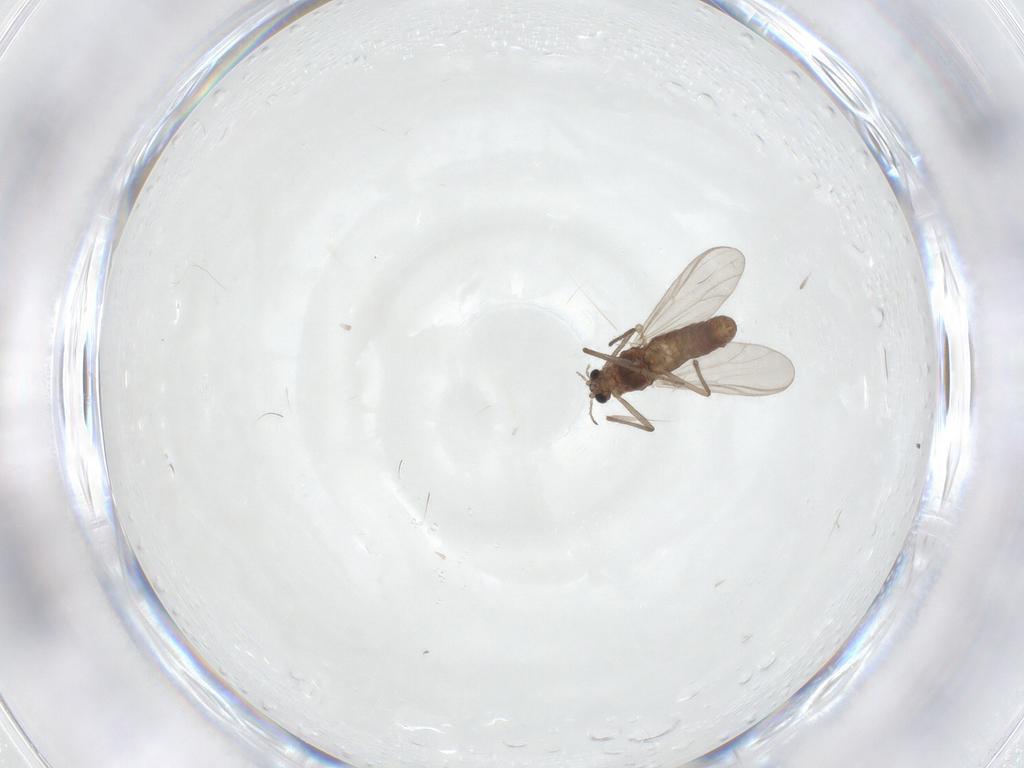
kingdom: Animalia
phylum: Arthropoda
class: Insecta
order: Diptera
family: Chironomidae
